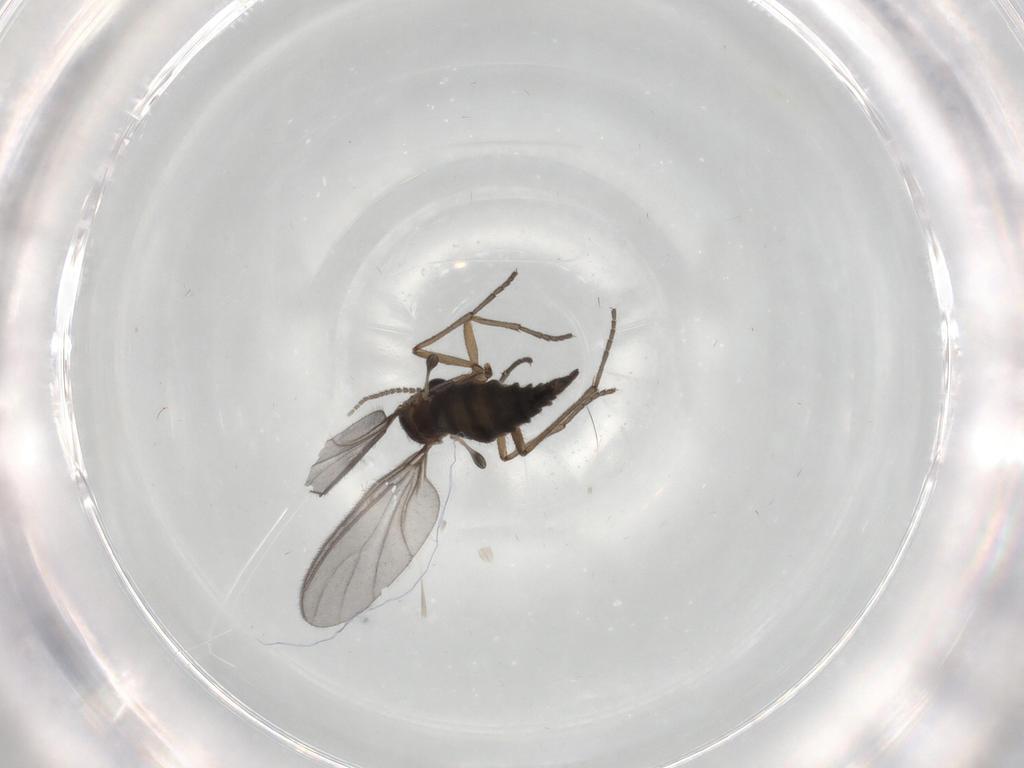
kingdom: Animalia
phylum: Arthropoda
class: Insecta
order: Diptera
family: Sciaridae
